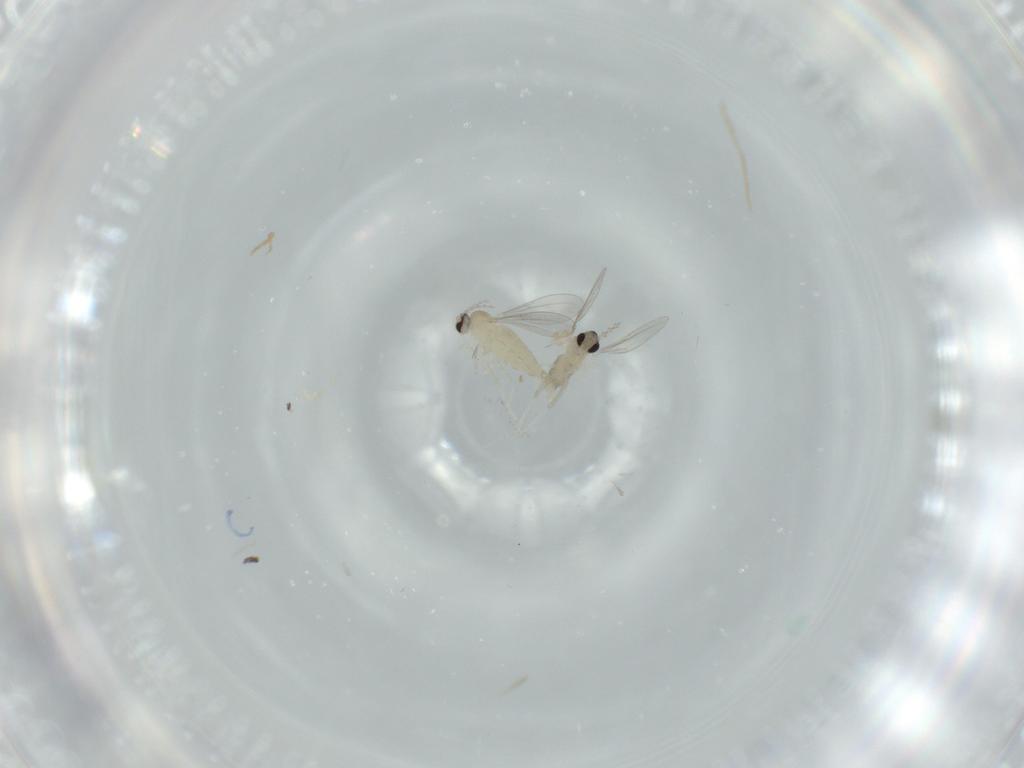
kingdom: Animalia
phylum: Arthropoda
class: Insecta
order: Diptera
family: Cecidomyiidae
